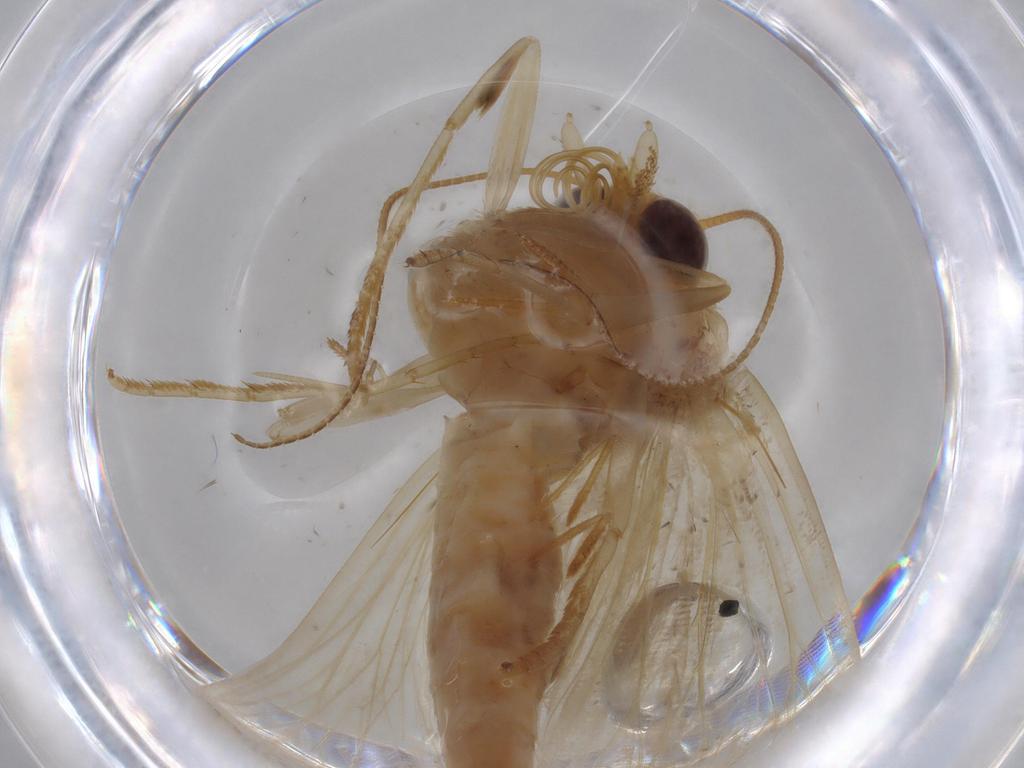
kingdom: Animalia
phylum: Arthropoda
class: Insecta
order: Lepidoptera
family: Erebidae
